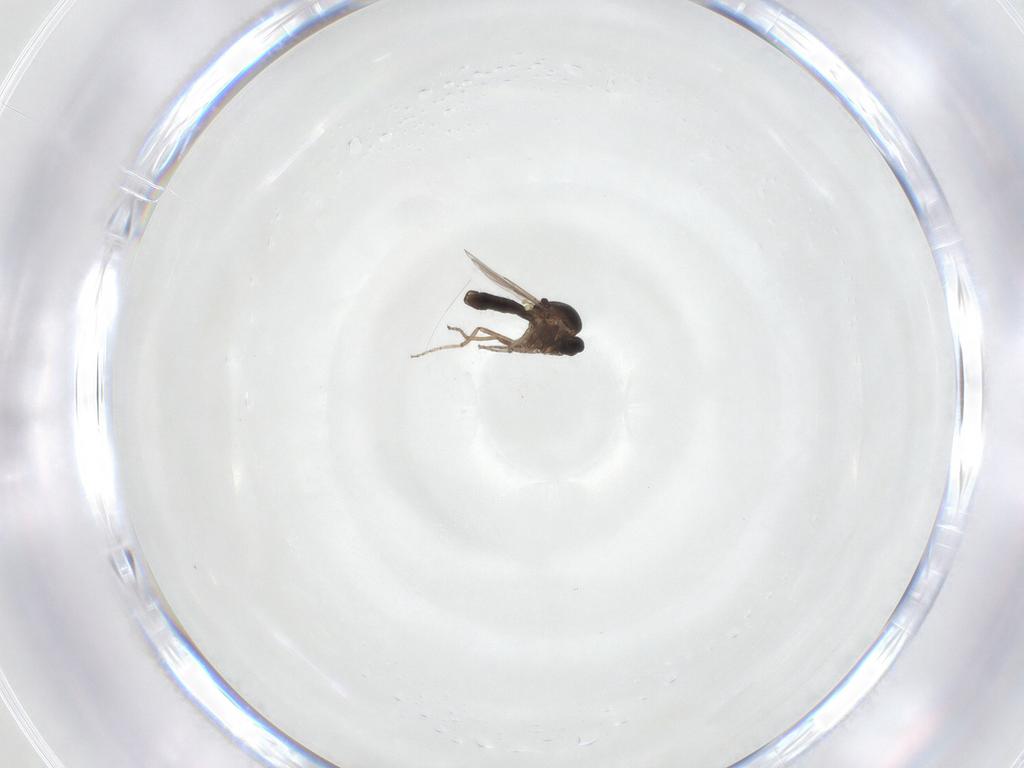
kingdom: Animalia
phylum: Arthropoda
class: Insecta
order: Diptera
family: Ceratopogonidae
